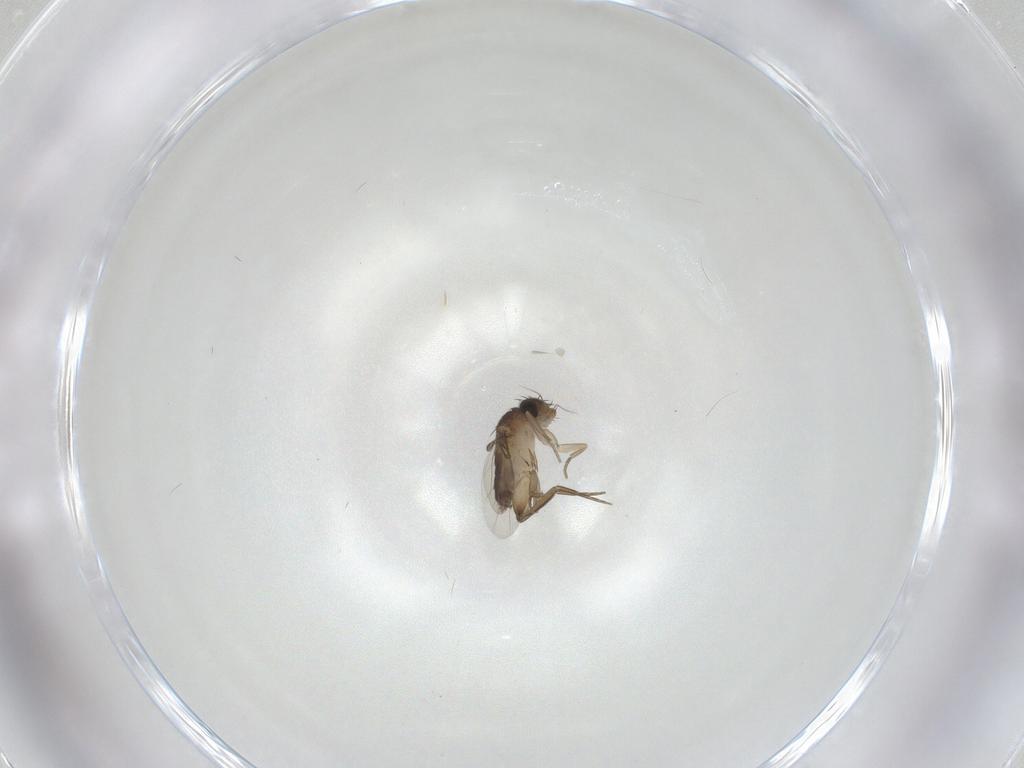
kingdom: Animalia
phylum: Arthropoda
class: Insecta
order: Diptera
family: Phoridae
